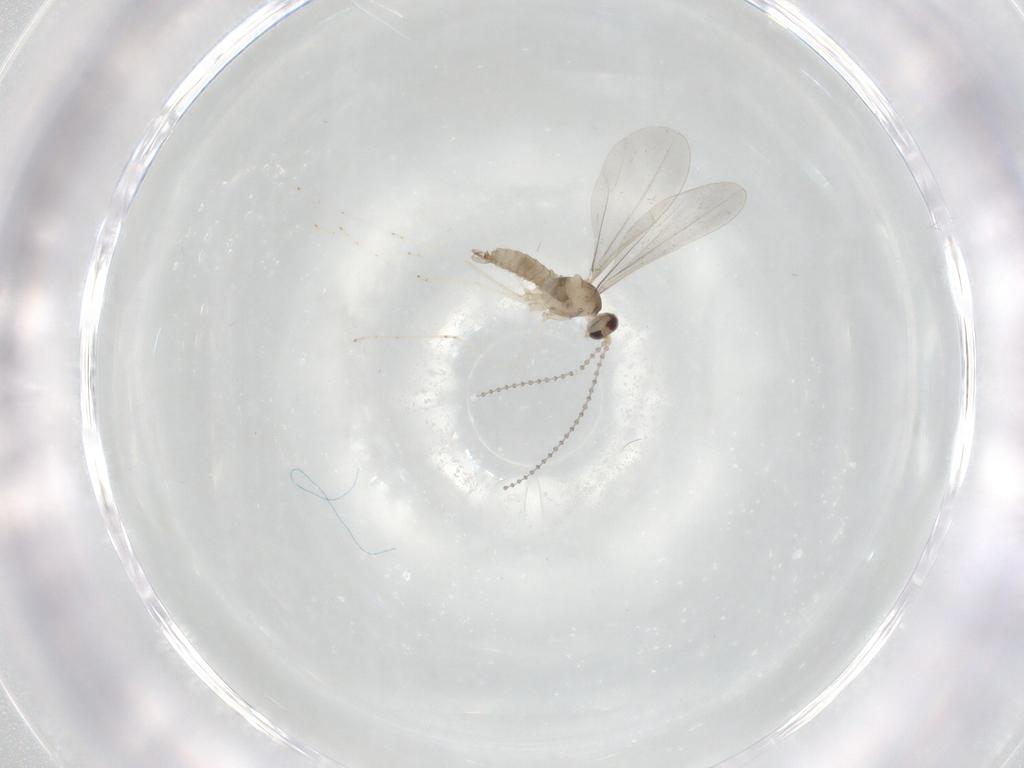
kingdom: Animalia
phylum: Arthropoda
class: Insecta
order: Diptera
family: Cecidomyiidae
